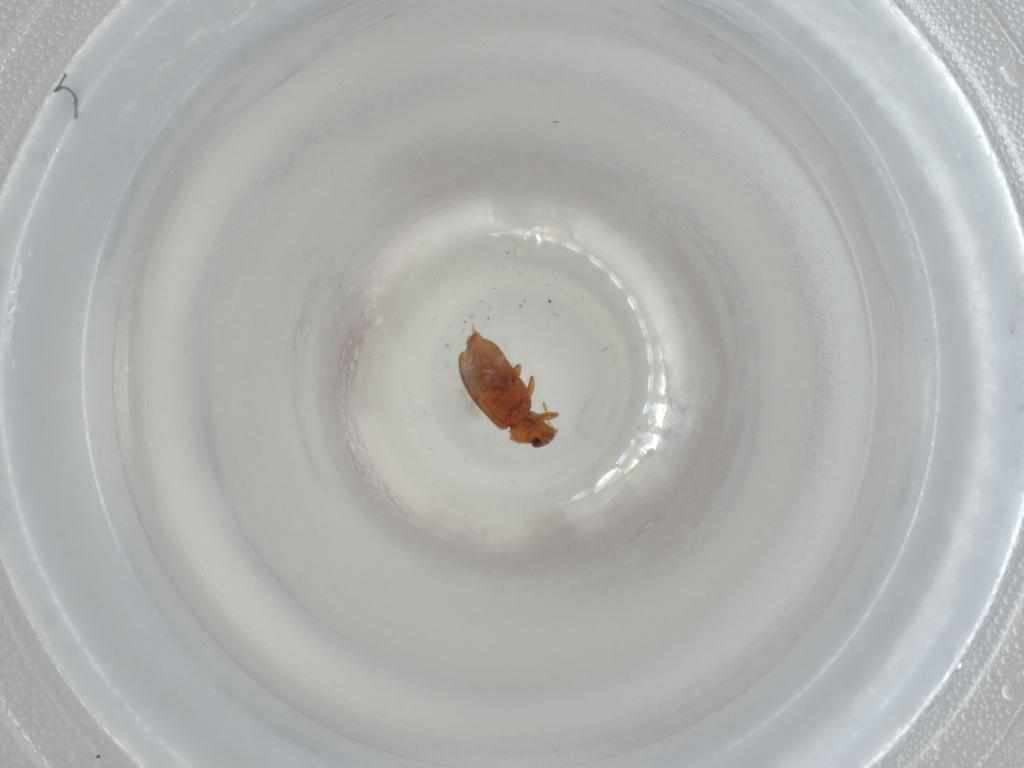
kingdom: Animalia
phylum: Arthropoda
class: Insecta
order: Coleoptera
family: Latridiidae
